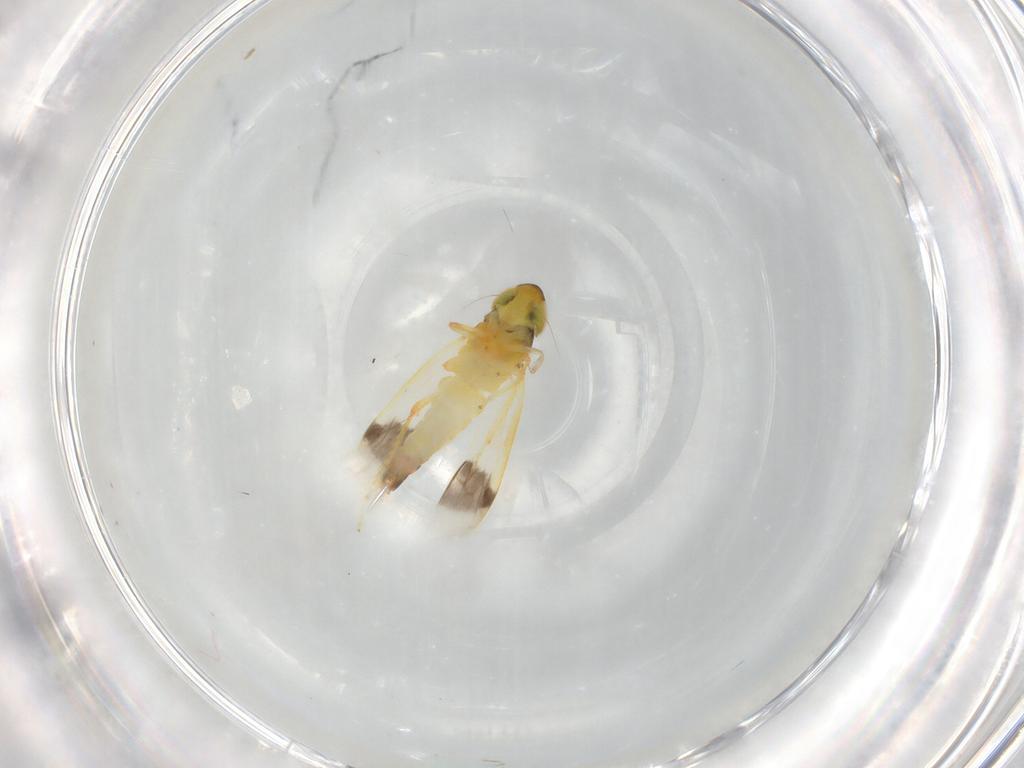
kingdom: Animalia
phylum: Arthropoda
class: Insecta
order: Hemiptera
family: Cicadellidae
